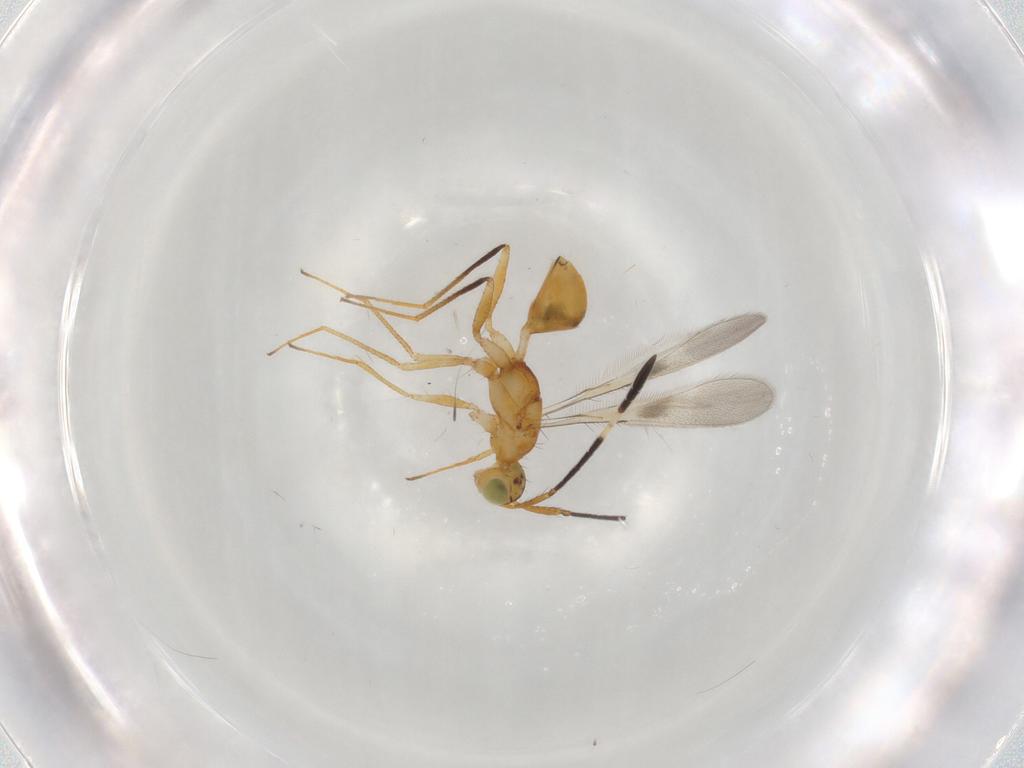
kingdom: Animalia
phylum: Arthropoda
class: Insecta
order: Hymenoptera
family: Mymaridae
